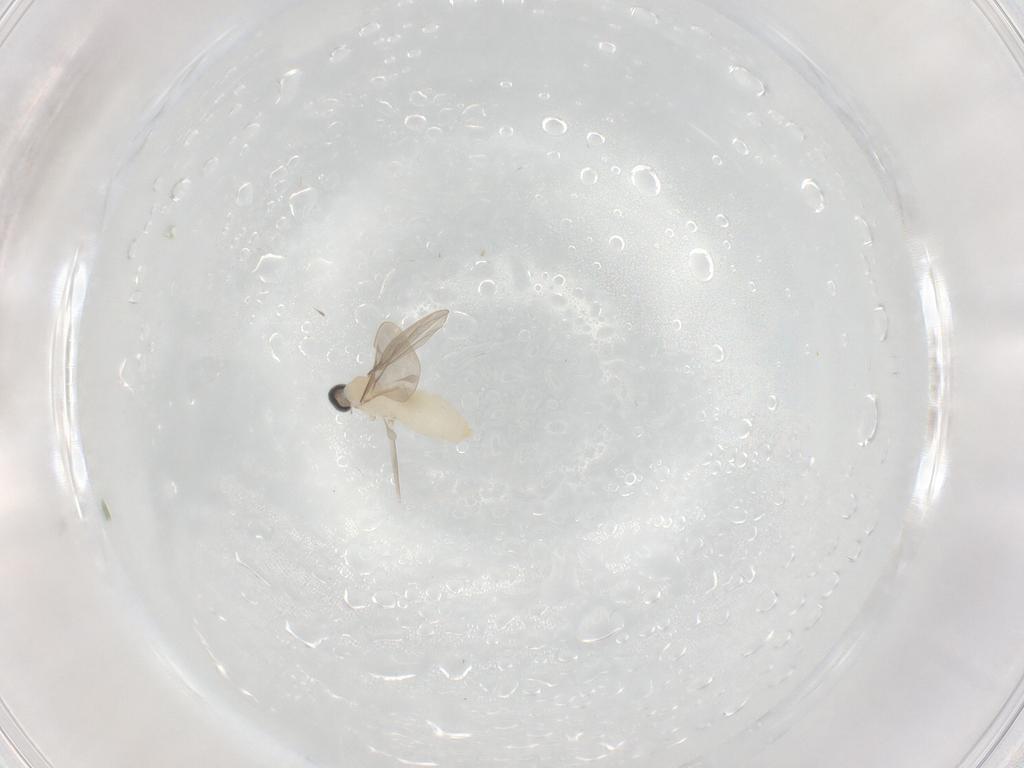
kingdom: Animalia
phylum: Arthropoda
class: Insecta
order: Diptera
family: Cecidomyiidae
